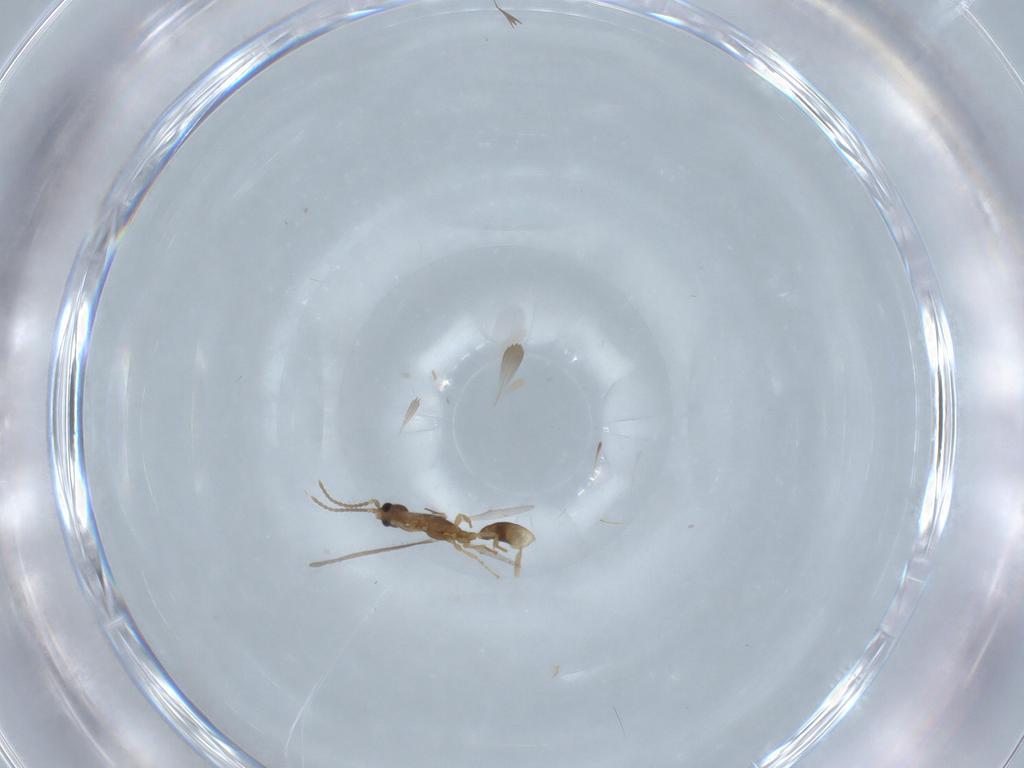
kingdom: Animalia
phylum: Arthropoda
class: Insecta
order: Hymenoptera
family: Formicidae
